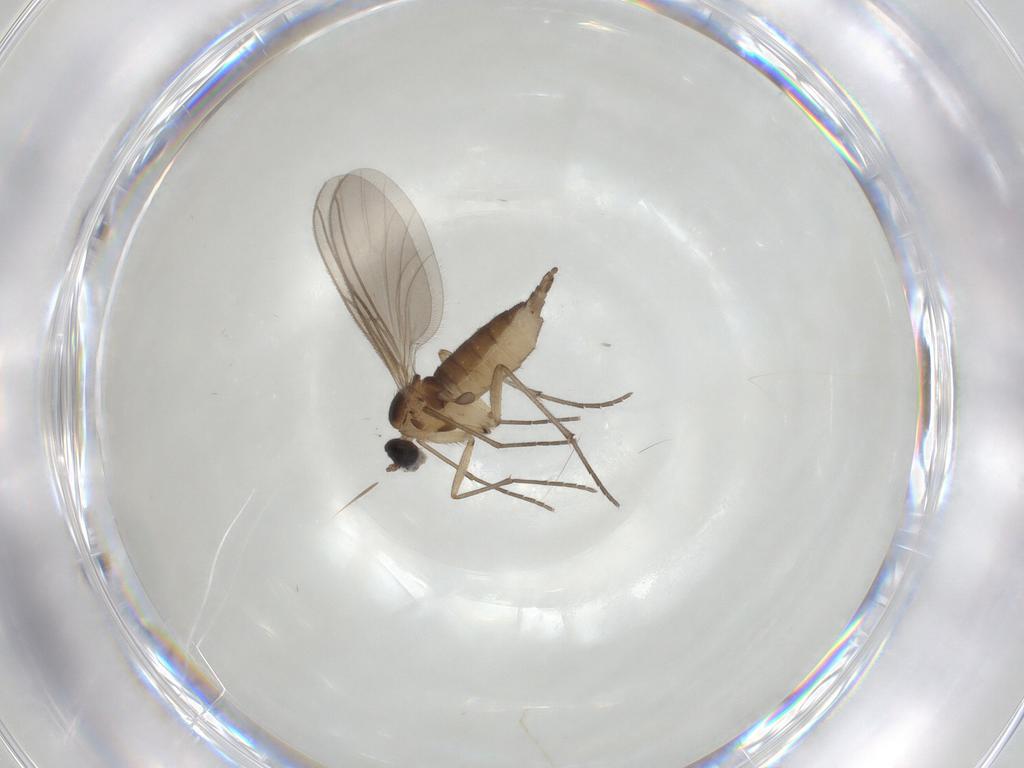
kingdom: Animalia
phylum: Arthropoda
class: Insecta
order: Diptera
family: Sciaridae
